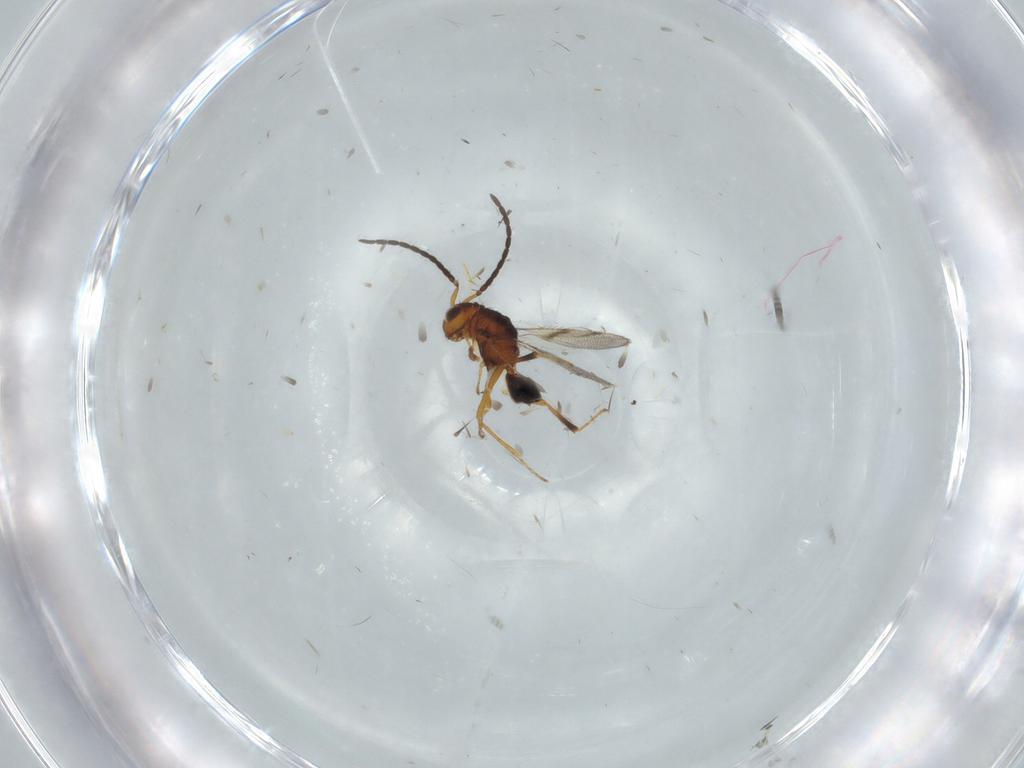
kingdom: Animalia
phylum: Arthropoda
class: Insecta
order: Hymenoptera
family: Mymaridae
